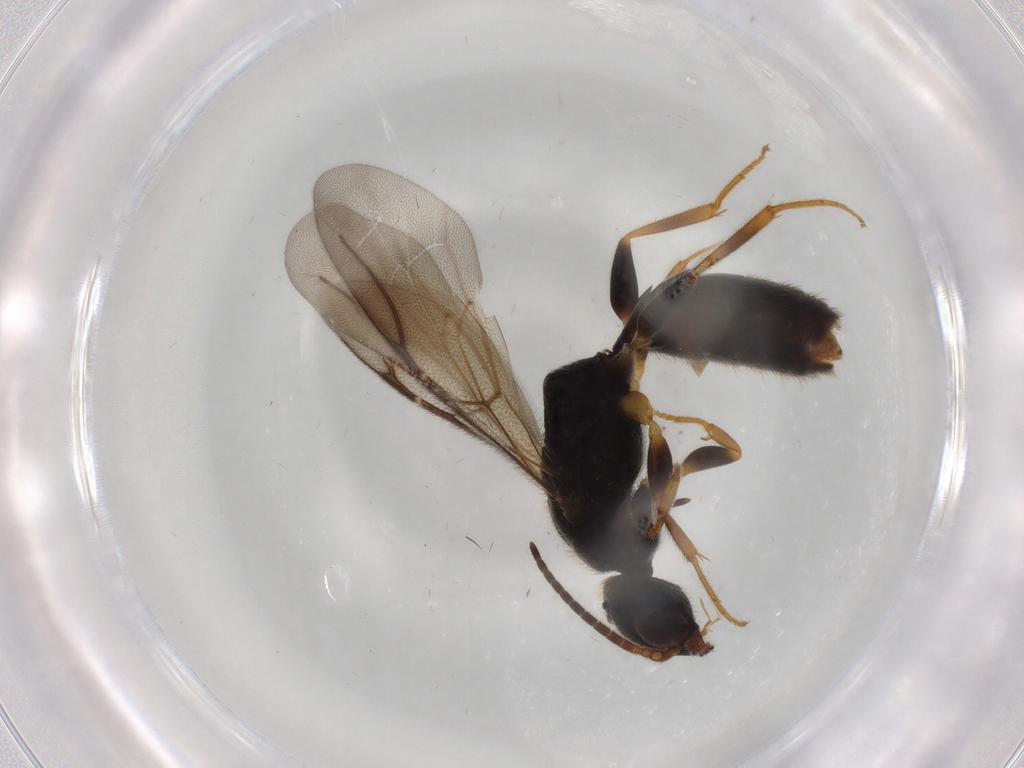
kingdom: Animalia
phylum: Arthropoda
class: Insecta
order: Hymenoptera
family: Bethylidae
